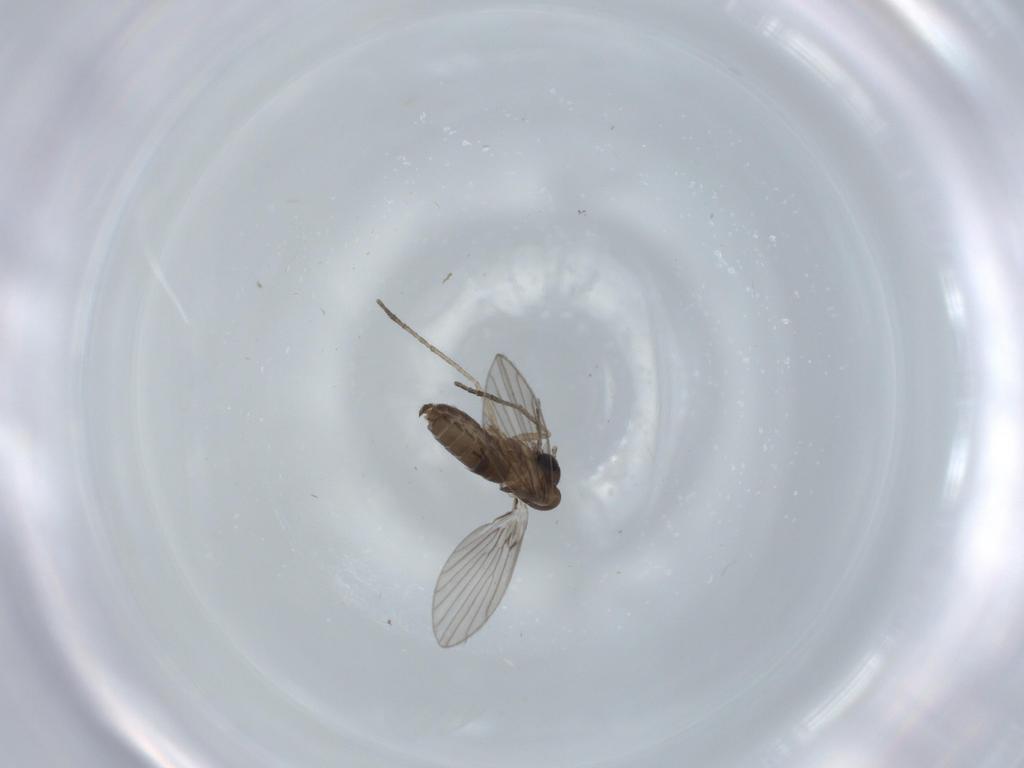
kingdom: Animalia
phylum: Arthropoda
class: Insecta
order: Diptera
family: Psychodidae
